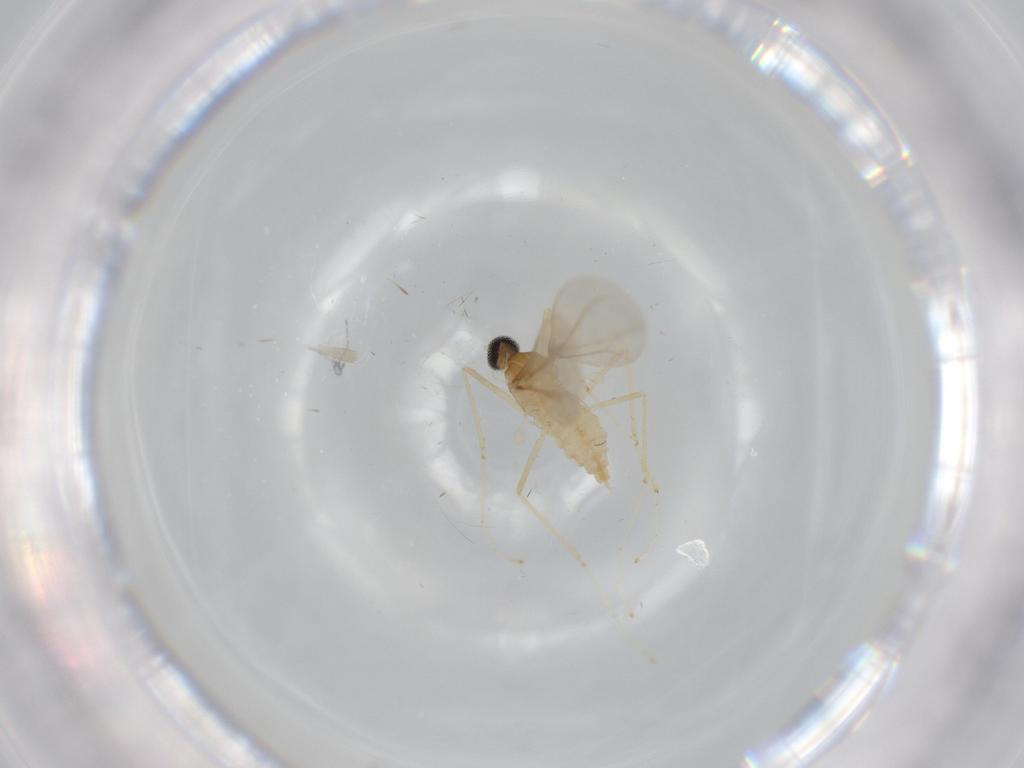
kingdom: Animalia
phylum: Arthropoda
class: Insecta
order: Diptera
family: Cecidomyiidae
